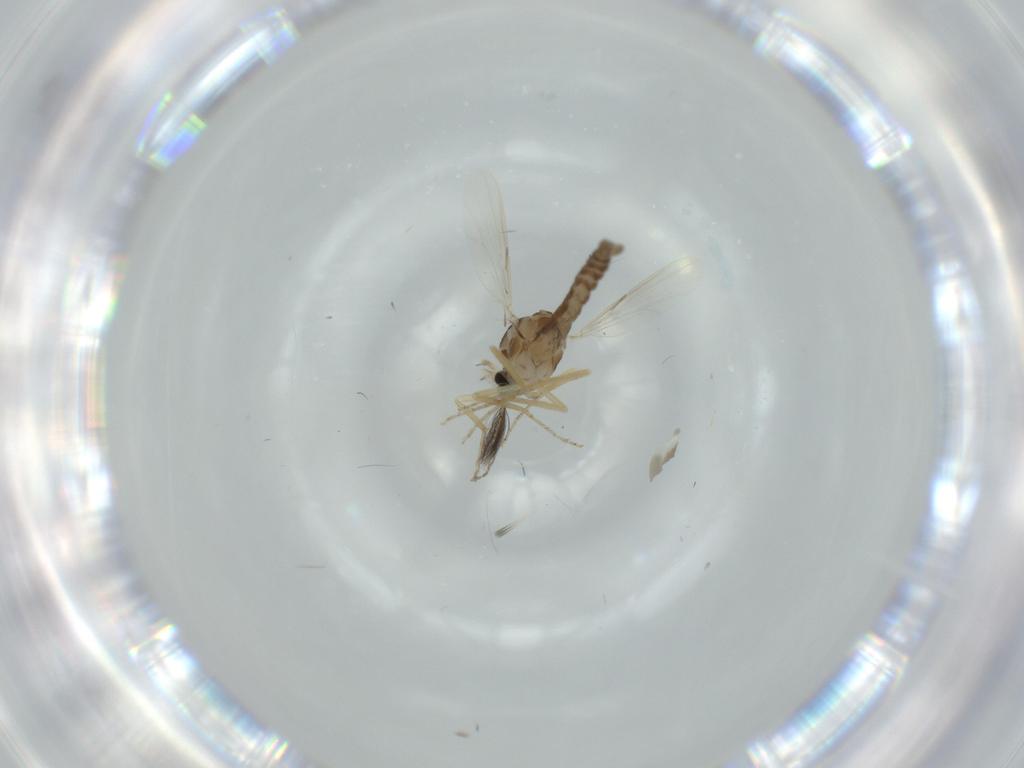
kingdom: Animalia
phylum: Arthropoda
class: Insecta
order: Diptera
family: Ceratopogonidae
